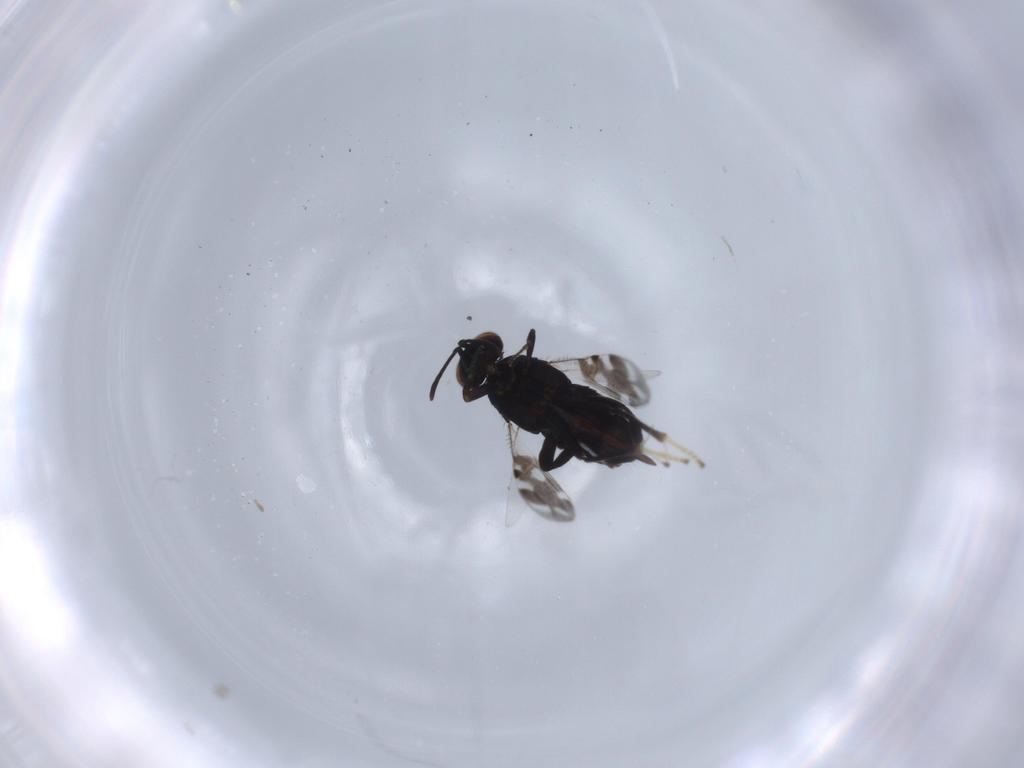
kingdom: Animalia
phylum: Arthropoda
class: Insecta
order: Hymenoptera
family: Encyrtidae
